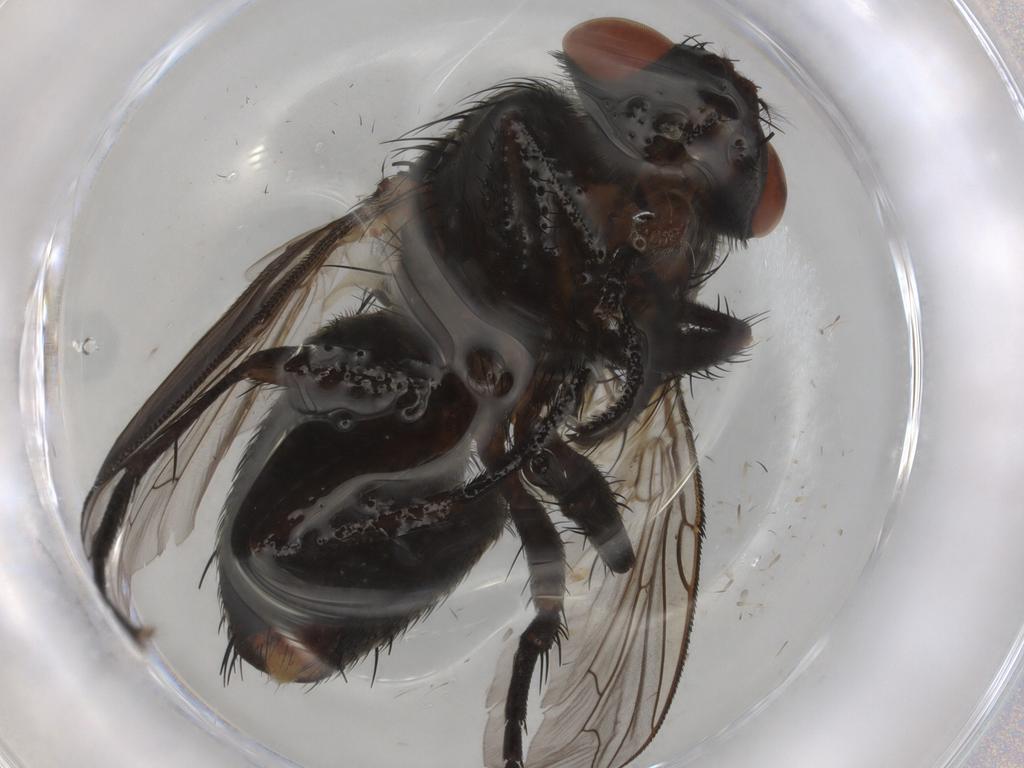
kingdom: Animalia
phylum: Arthropoda
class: Insecta
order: Diptera
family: Sarcophagidae
